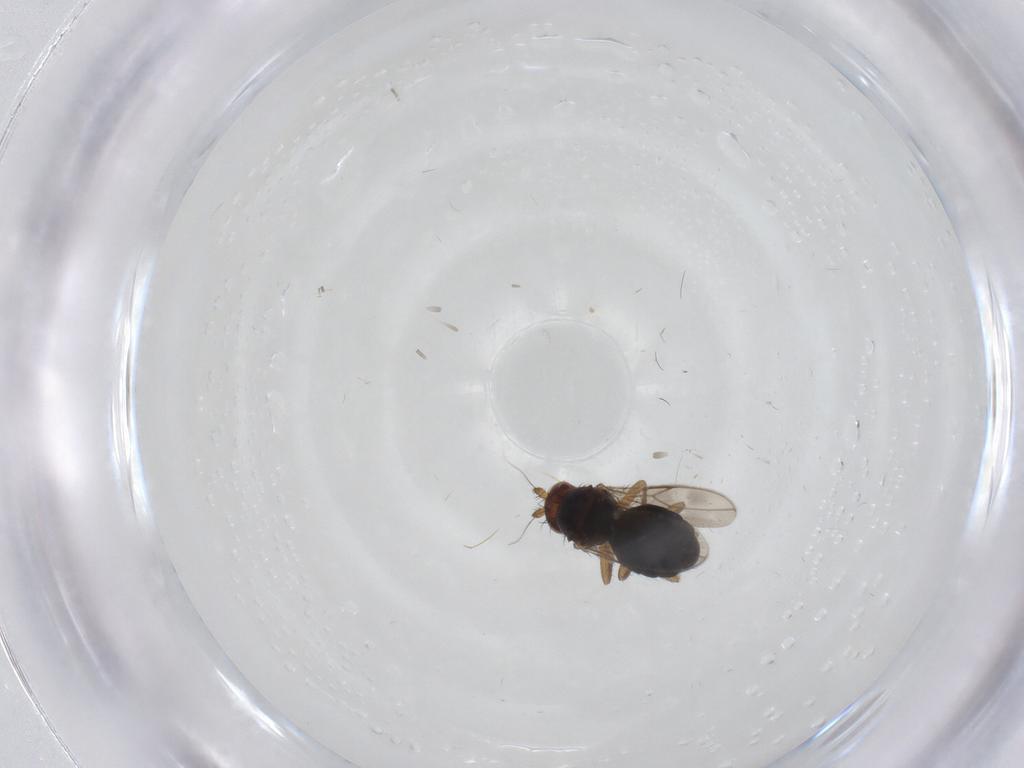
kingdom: Animalia
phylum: Arthropoda
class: Insecta
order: Diptera
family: Sphaeroceridae
